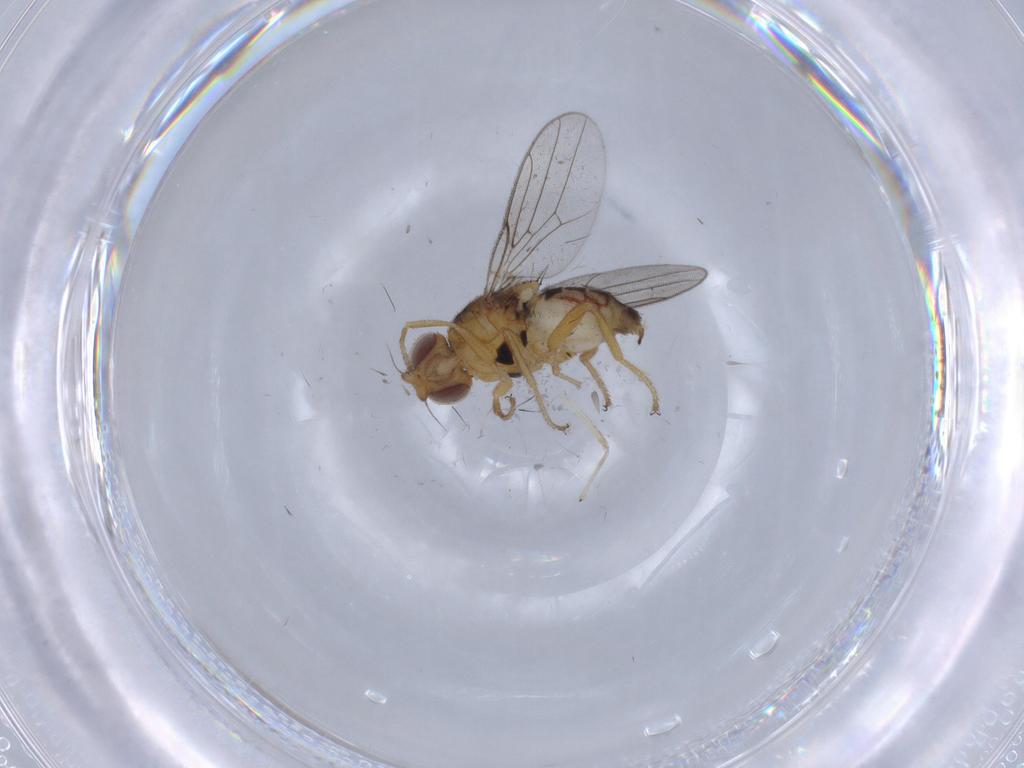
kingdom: Animalia
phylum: Arthropoda
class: Insecta
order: Diptera
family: Chloropidae
